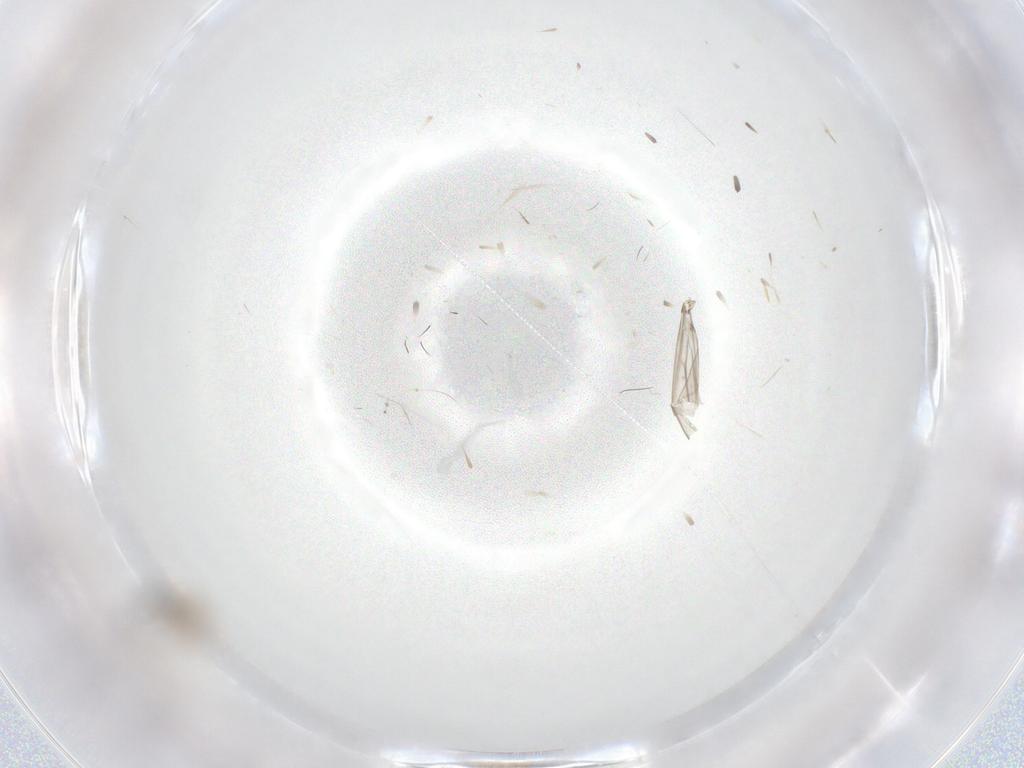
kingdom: Animalia
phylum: Arthropoda
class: Insecta
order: Diptera
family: Cecidomyiidae
